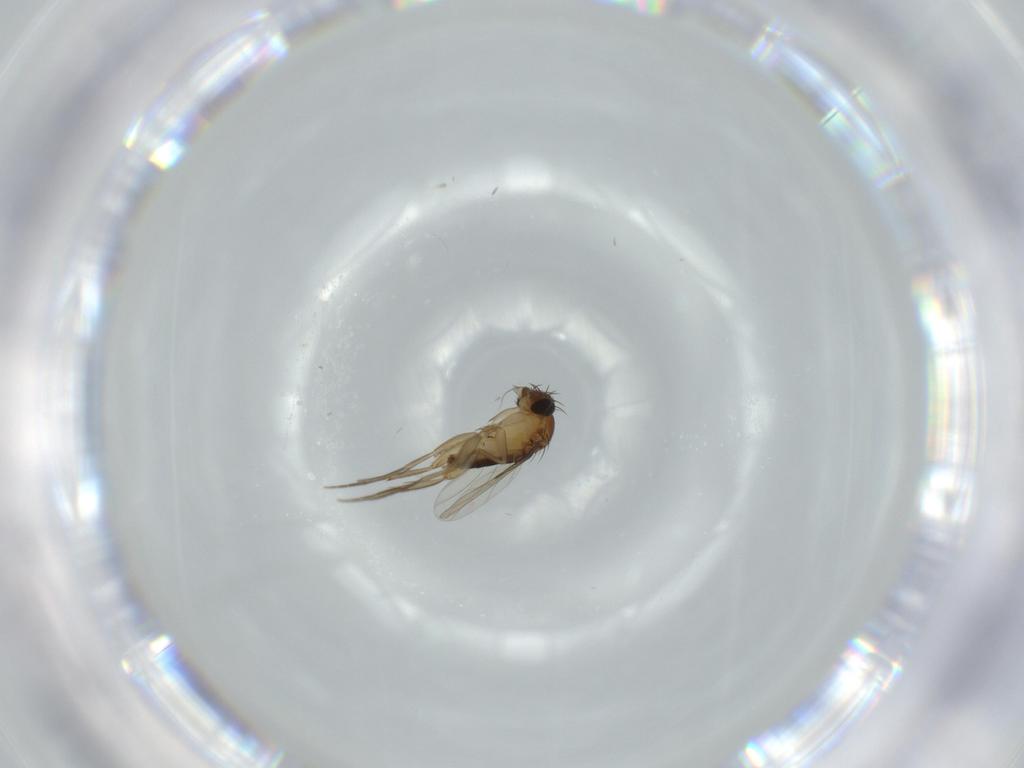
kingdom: Animalia
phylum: Arthropoda
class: Insecta
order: Diptera
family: Phoridae
